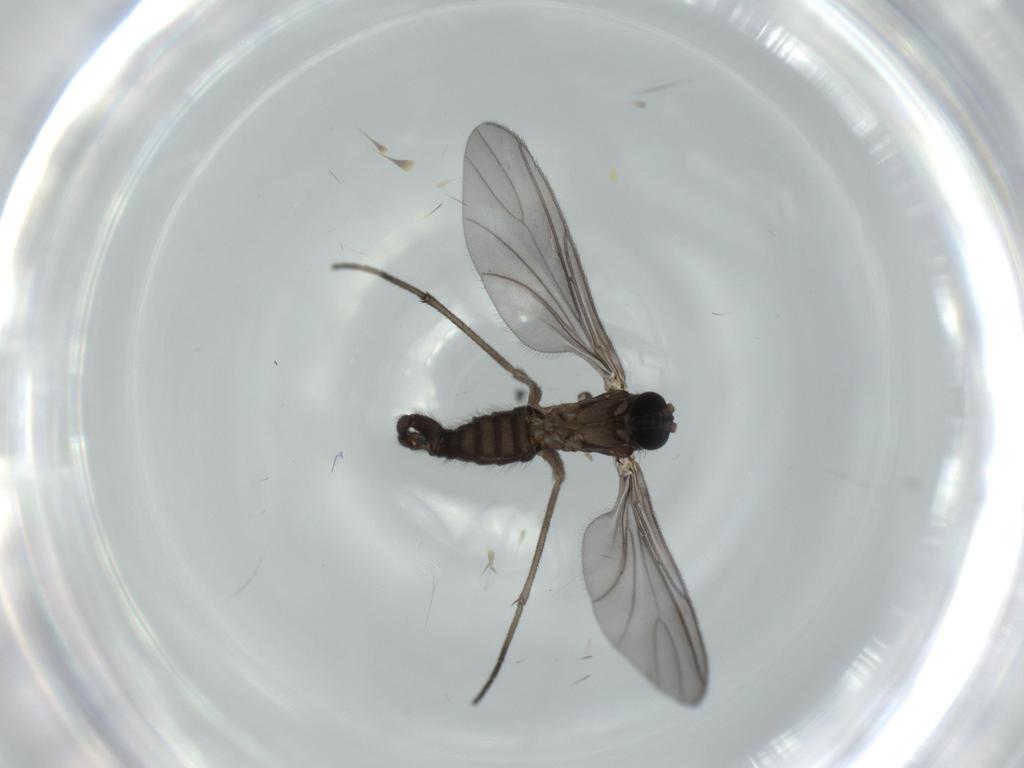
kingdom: Animalia
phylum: Arthropoda
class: Insecta
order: Diptera
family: Sciaridae
